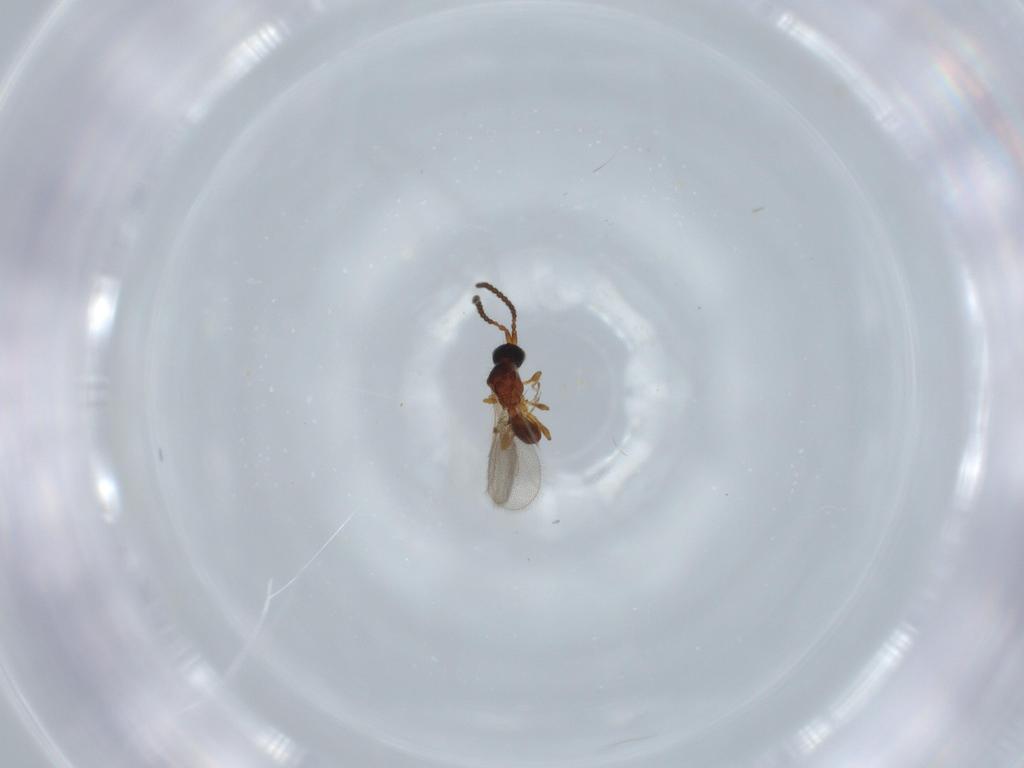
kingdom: Animalia
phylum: Arthropoda
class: Insecta
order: Hymenoptera
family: Diapriidae
